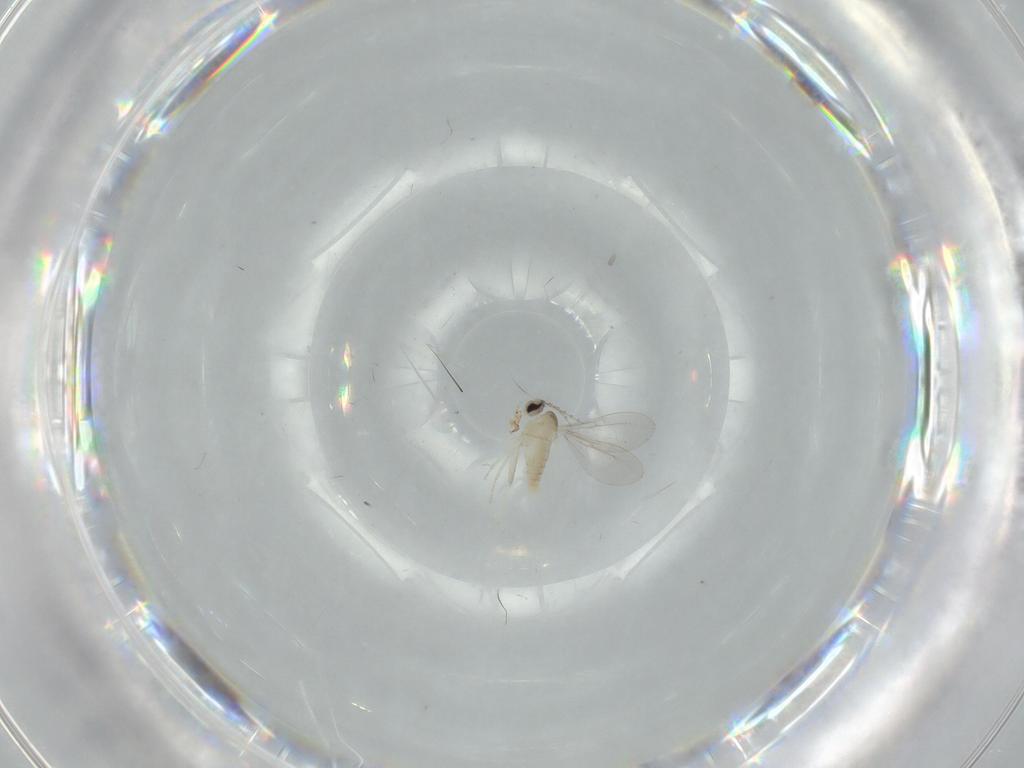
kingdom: Animalia
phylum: Arthropoda
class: Insecta
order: Diptera
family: Cecidomyiidae
